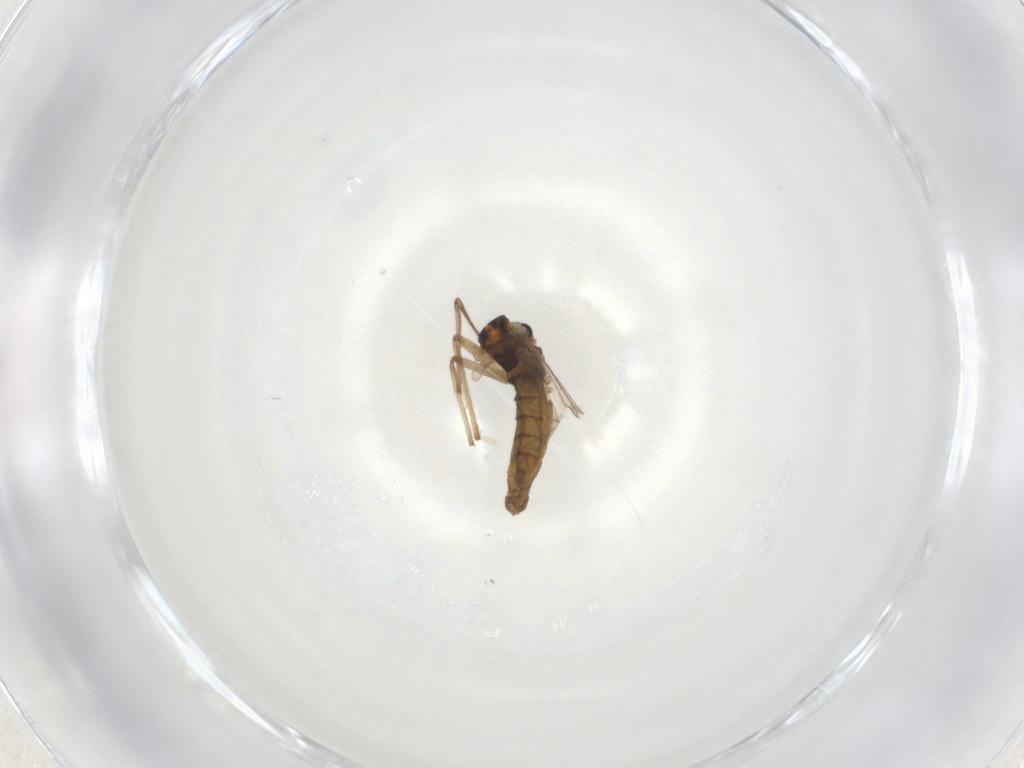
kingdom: Animalia
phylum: Arthropoda
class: Insecta
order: Diptera
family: Chironomidae
